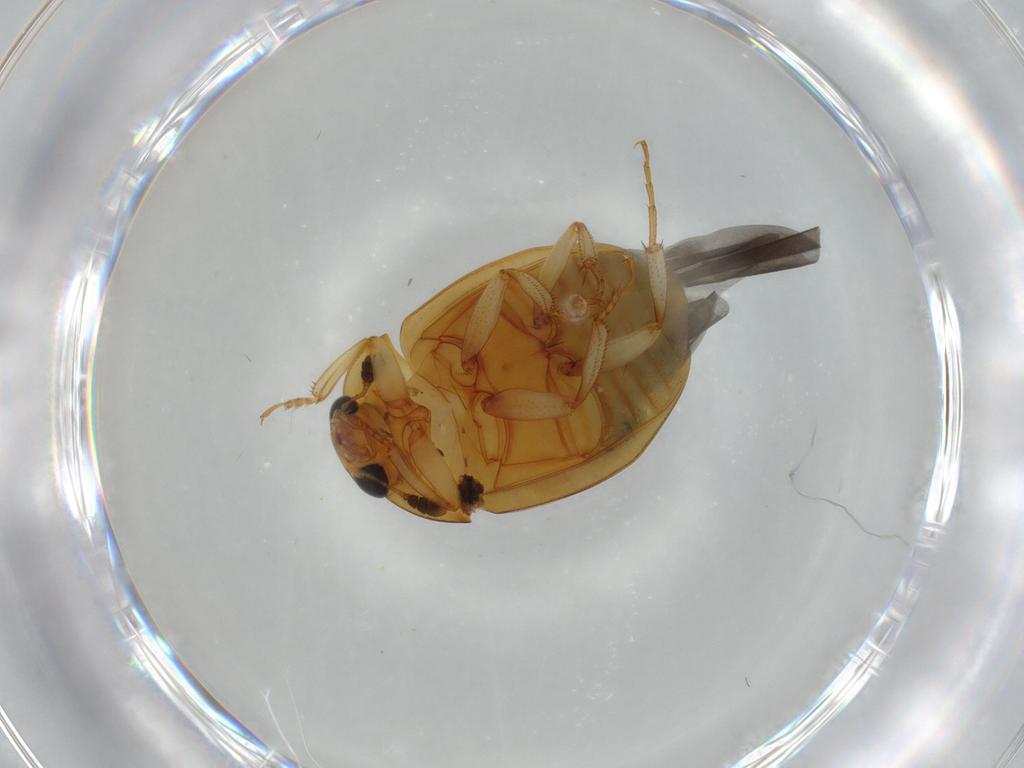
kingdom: Animalia
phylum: Arthropoda
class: Insecta
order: Coleoptera
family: Nitidulidae
